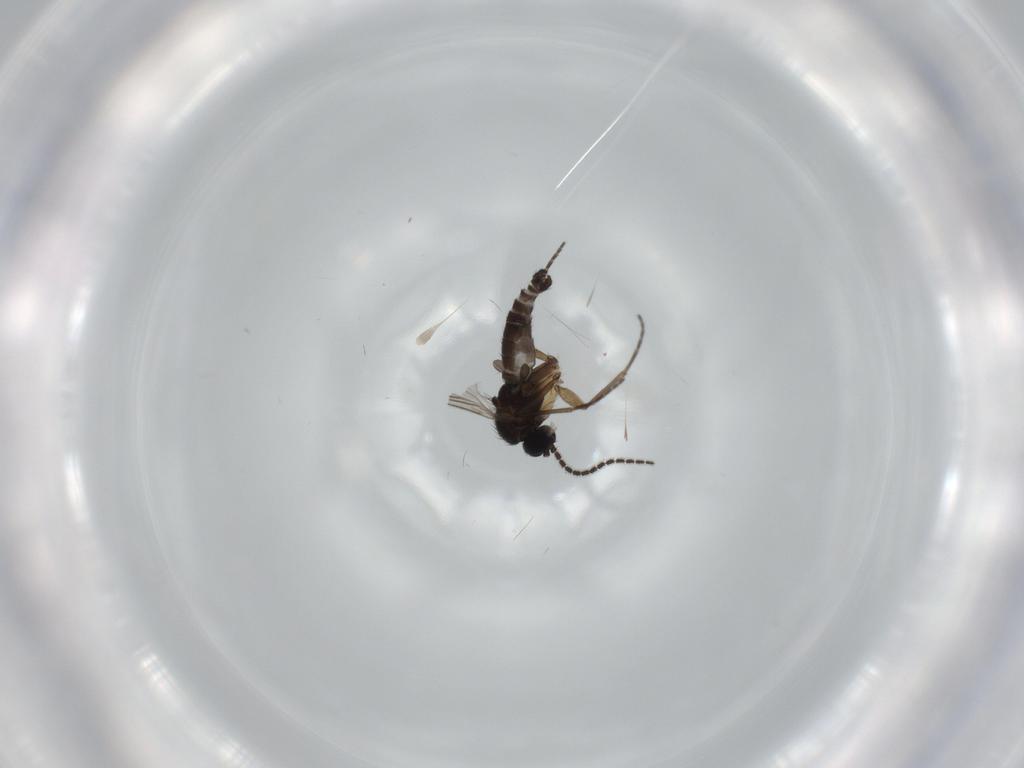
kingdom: Animalia
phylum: Arthropoda
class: Insecta
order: Diptera
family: Sciaridae
